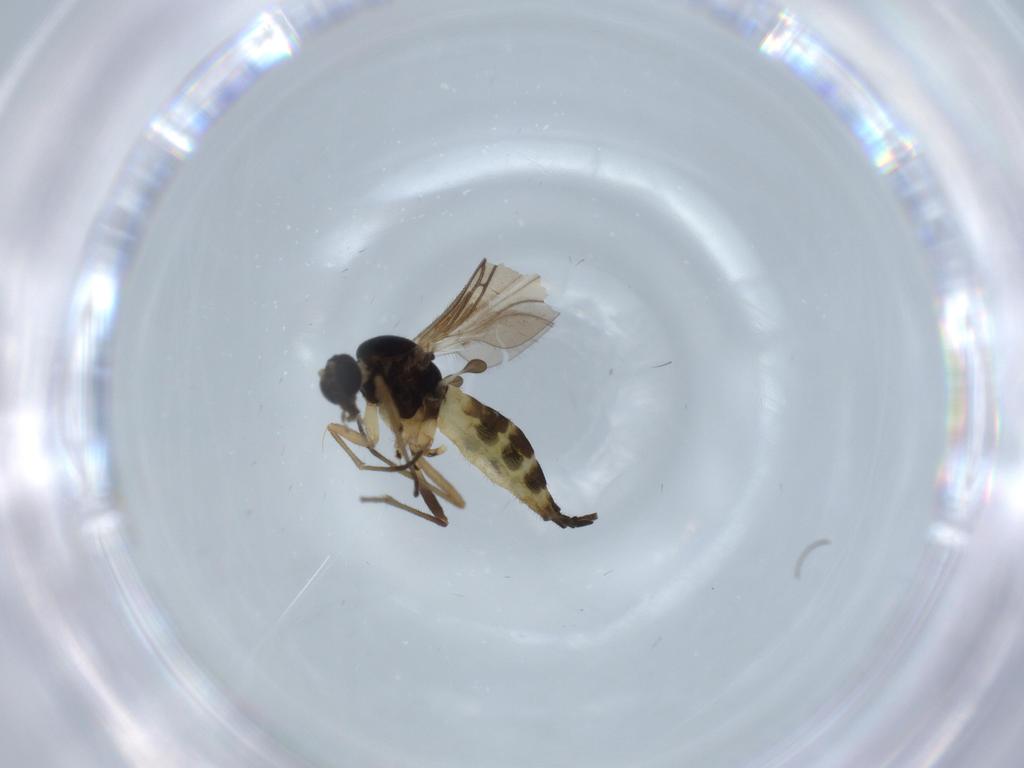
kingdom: Animalia
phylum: Arthropoda
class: Insecta
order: Diptera
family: Sciaridae
